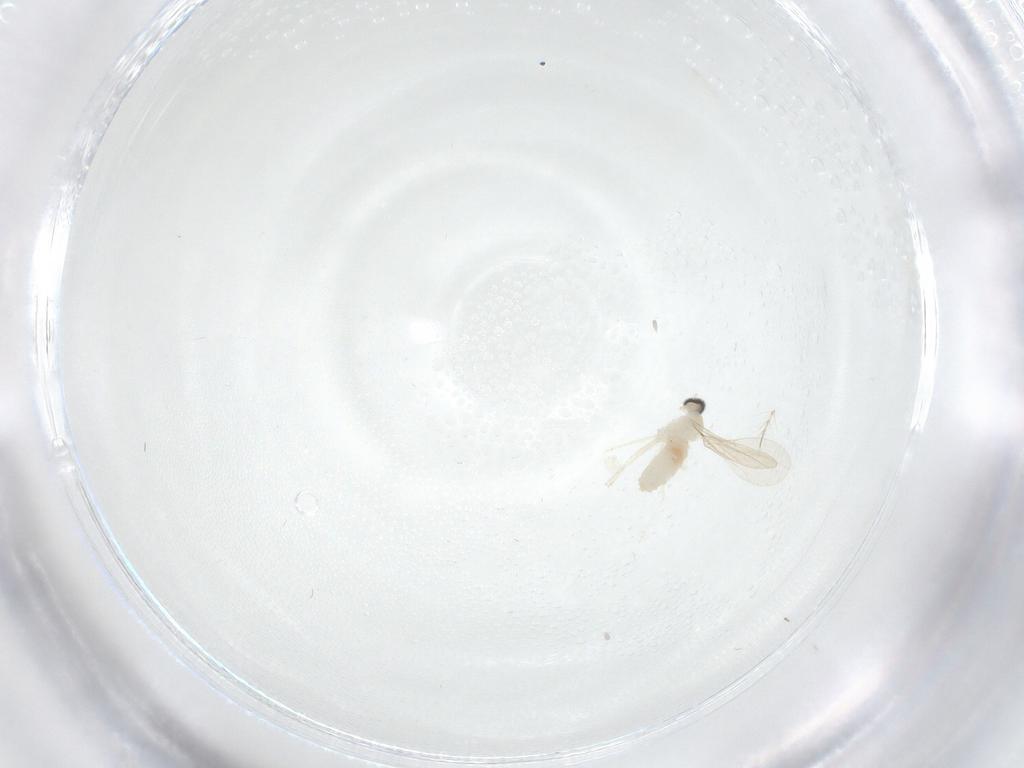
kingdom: Animalia
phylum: Arthropoda
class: Insecta
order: Diptera
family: Cecidomyiidae
